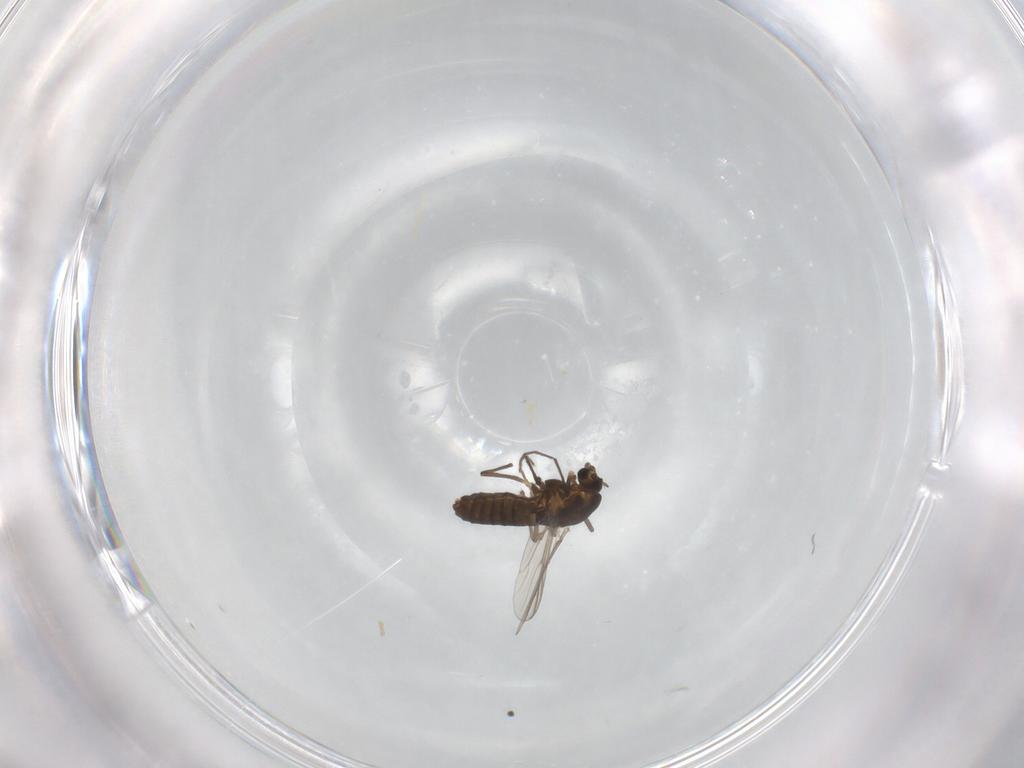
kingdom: Animalia
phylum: Arthropoda
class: Insecta
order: Diptera
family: Chironomidae
